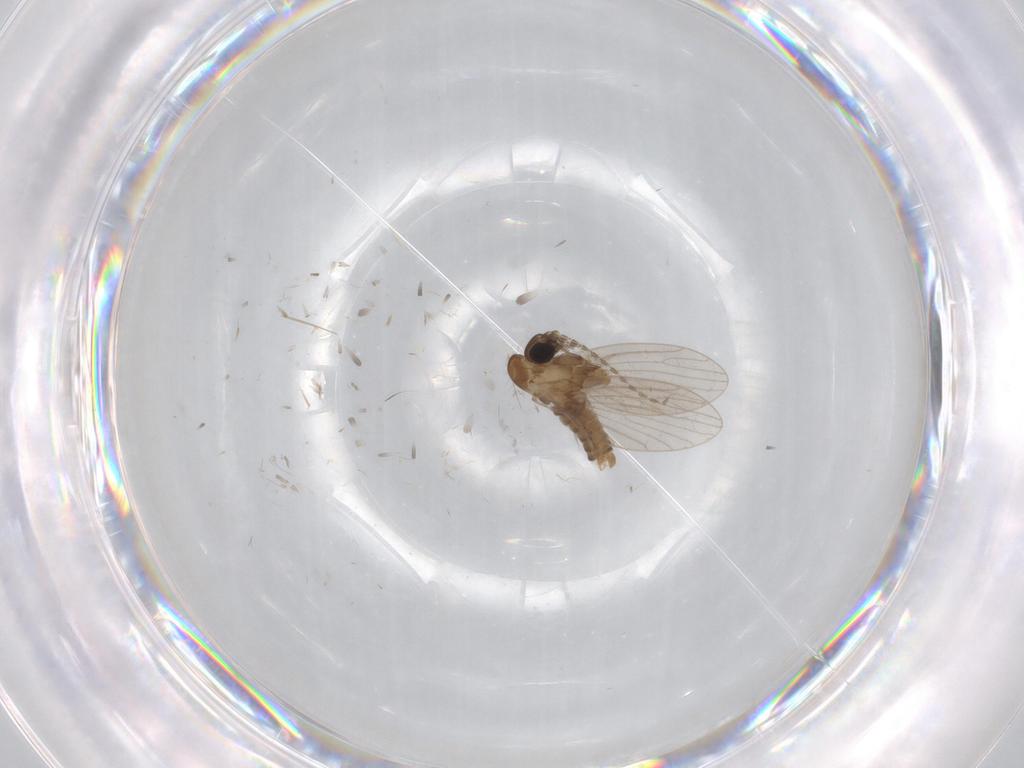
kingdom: Animalia
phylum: Arthropoda
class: Insecta
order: Diptera
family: Psychodidae
